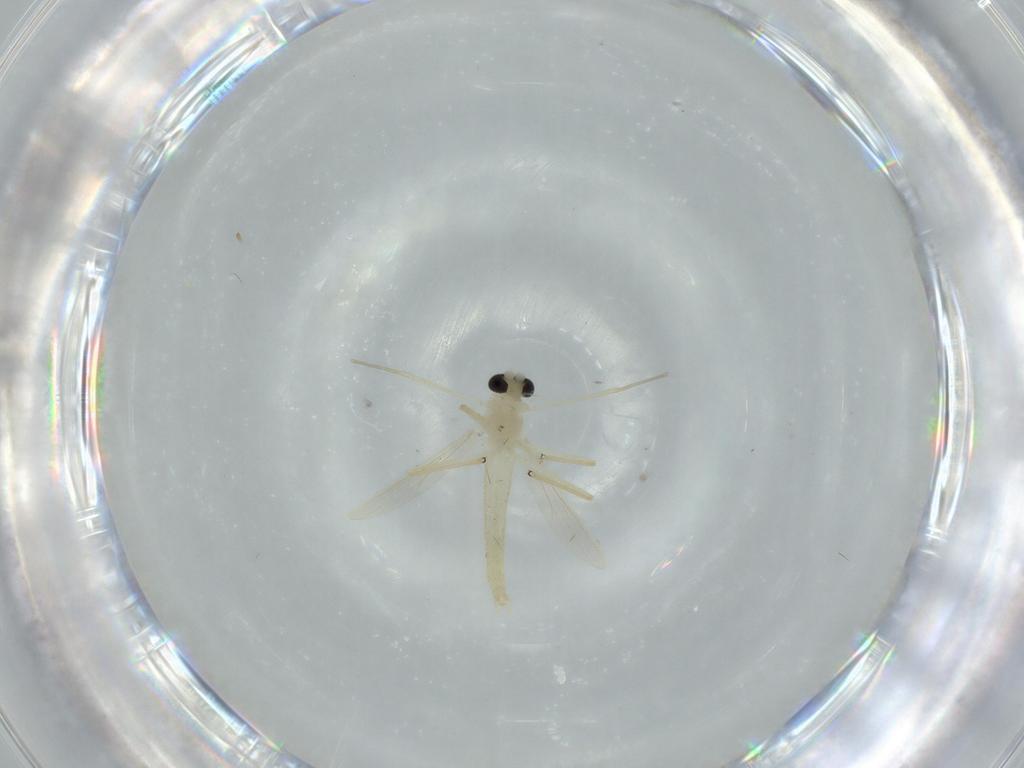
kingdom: Animalia
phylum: Arthropoda
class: Insecta
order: Diptera
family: Chironomidae
